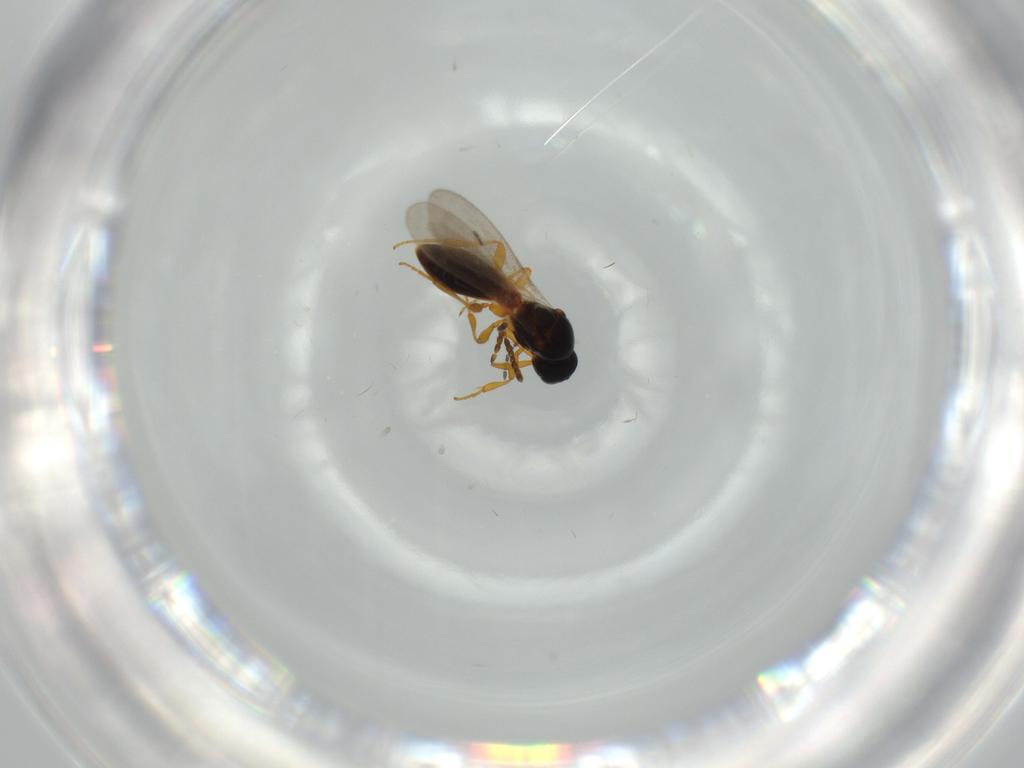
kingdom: Animalia
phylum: Arthropoda
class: Insecta
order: Hymenoptera
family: Platygastridae
